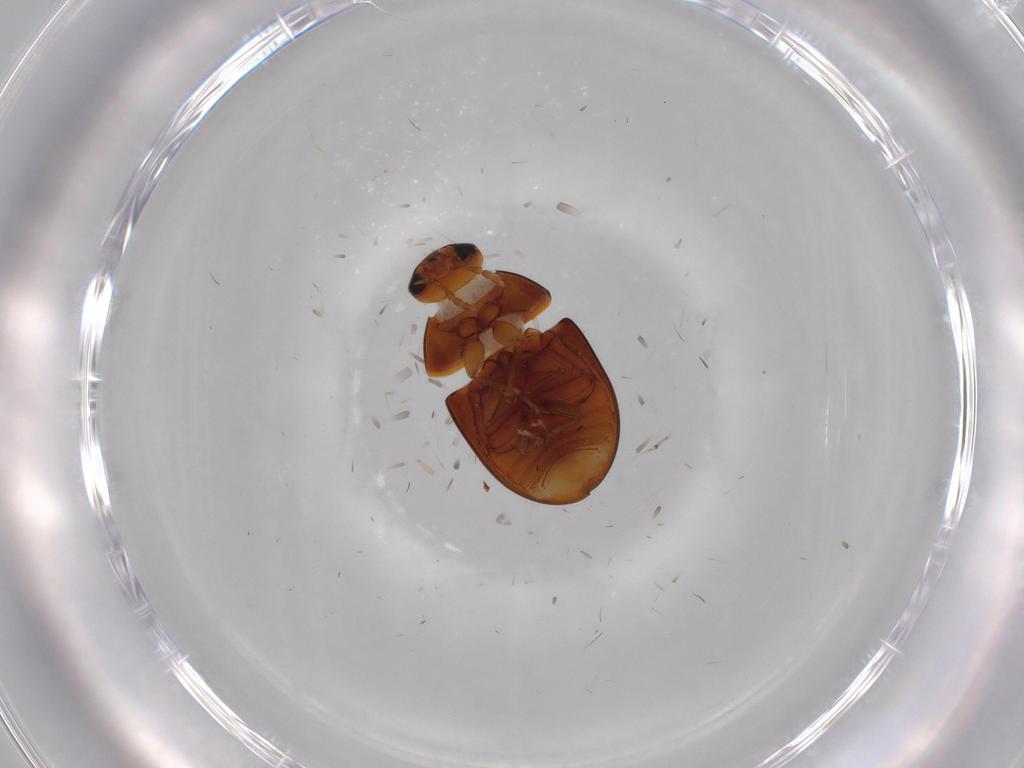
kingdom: Animalia
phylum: Arthropoda
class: Insecta
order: Coleoptera
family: Phalacridae
